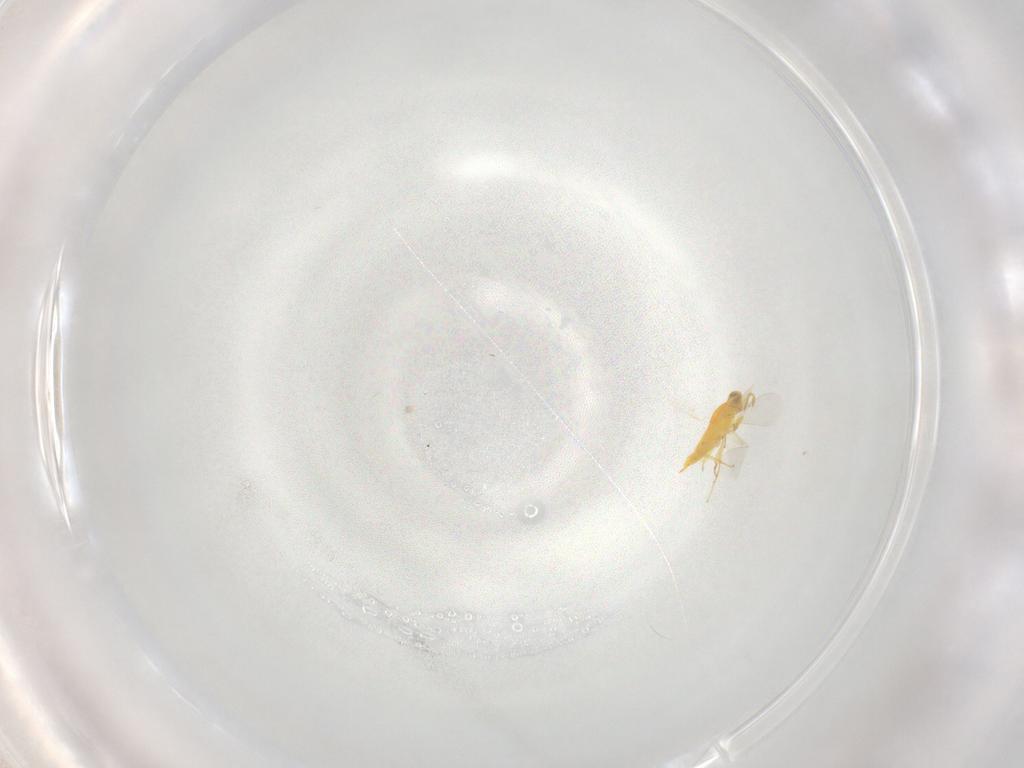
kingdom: Animalia
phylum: Arthropoda
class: Insecta
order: Hymenoptera
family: Aphelinidae
